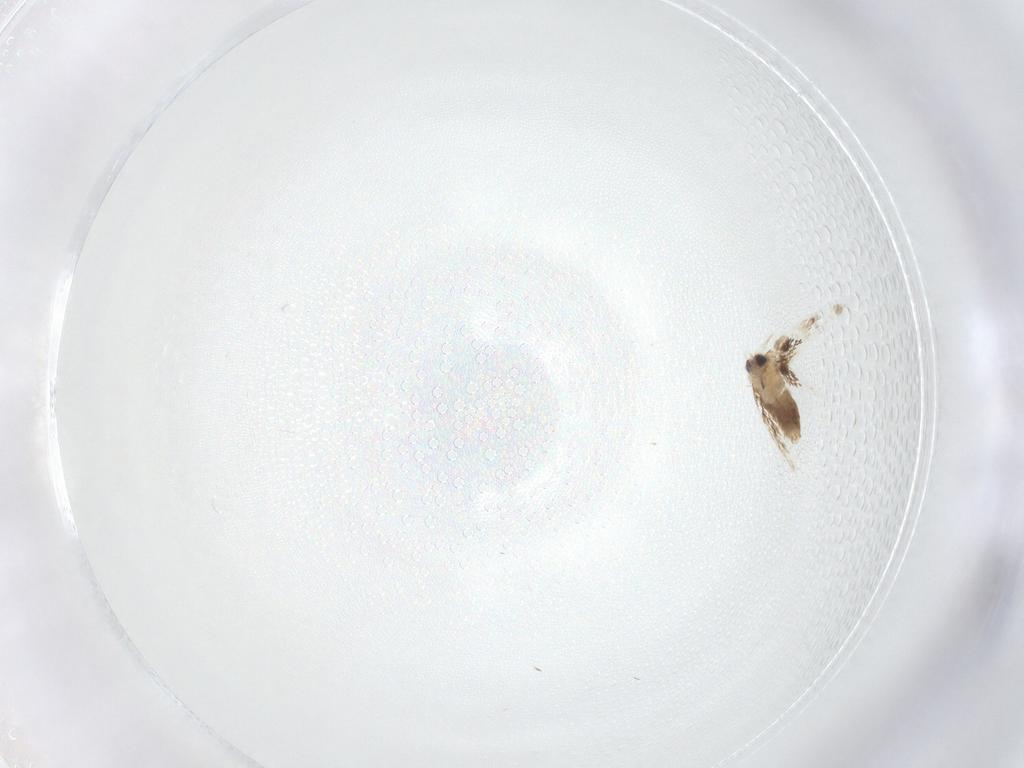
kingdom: Animalia
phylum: Arthropoda
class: Insecta
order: Lepidoptera
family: Nepticulidae
